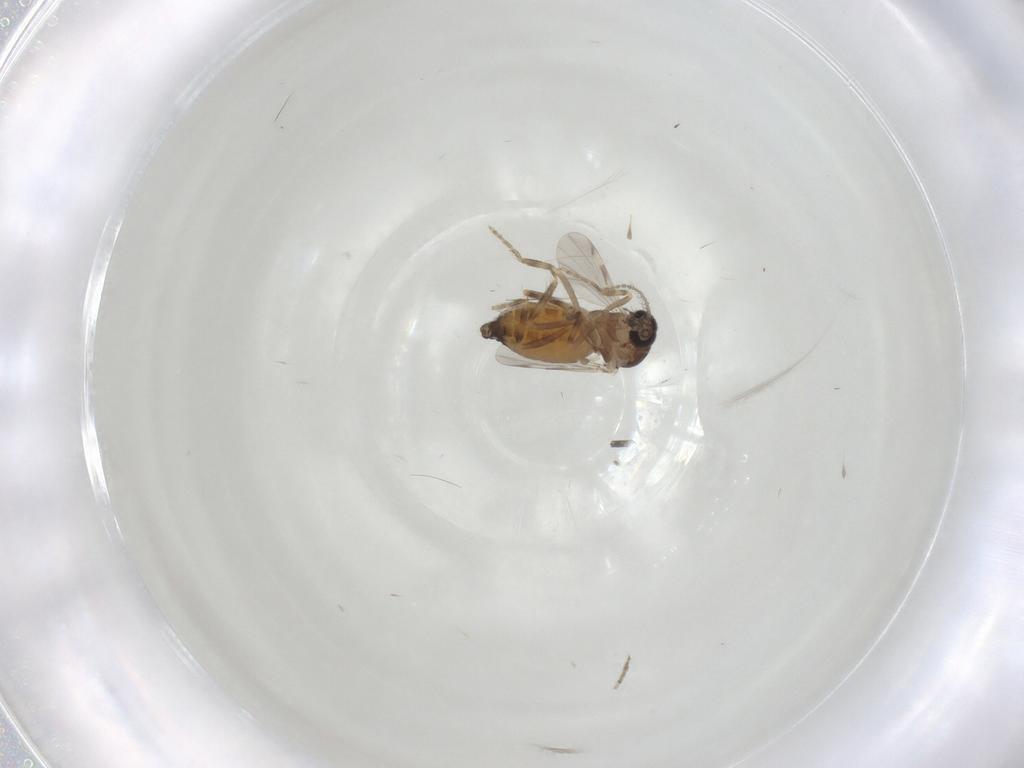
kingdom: Animalia
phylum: Arthropoda
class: Insecta
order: Diptera
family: Ceratopogonidae
